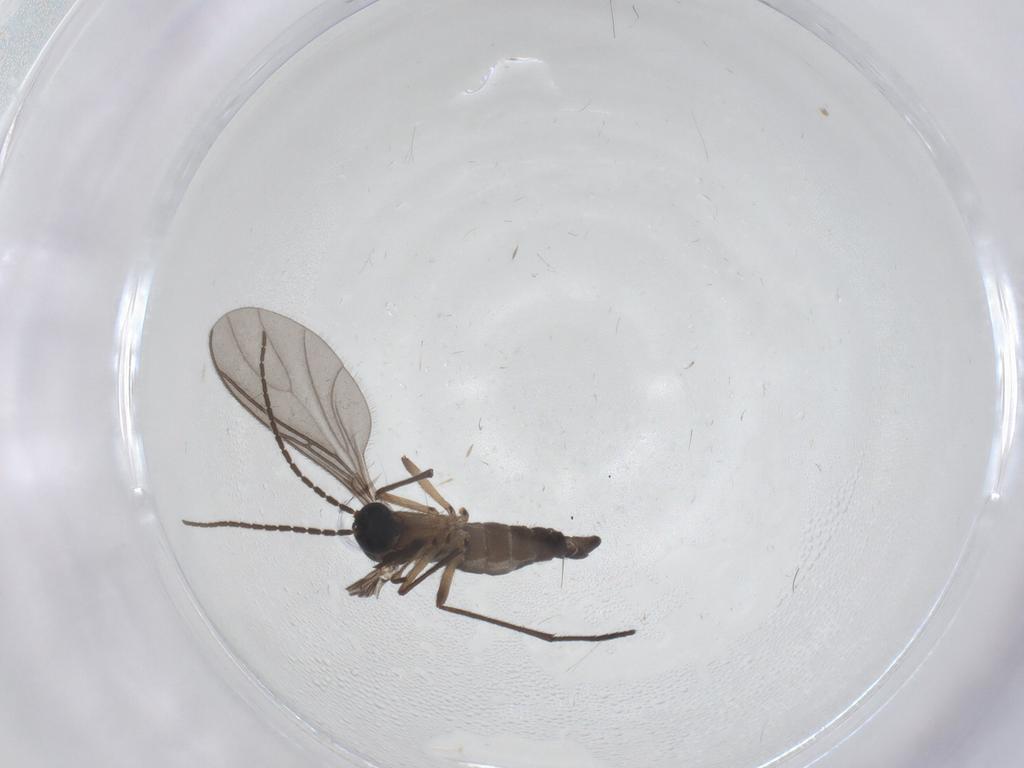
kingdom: Animalia
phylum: Arthropoda
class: Insecta
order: Diptera
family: Sciaridae
